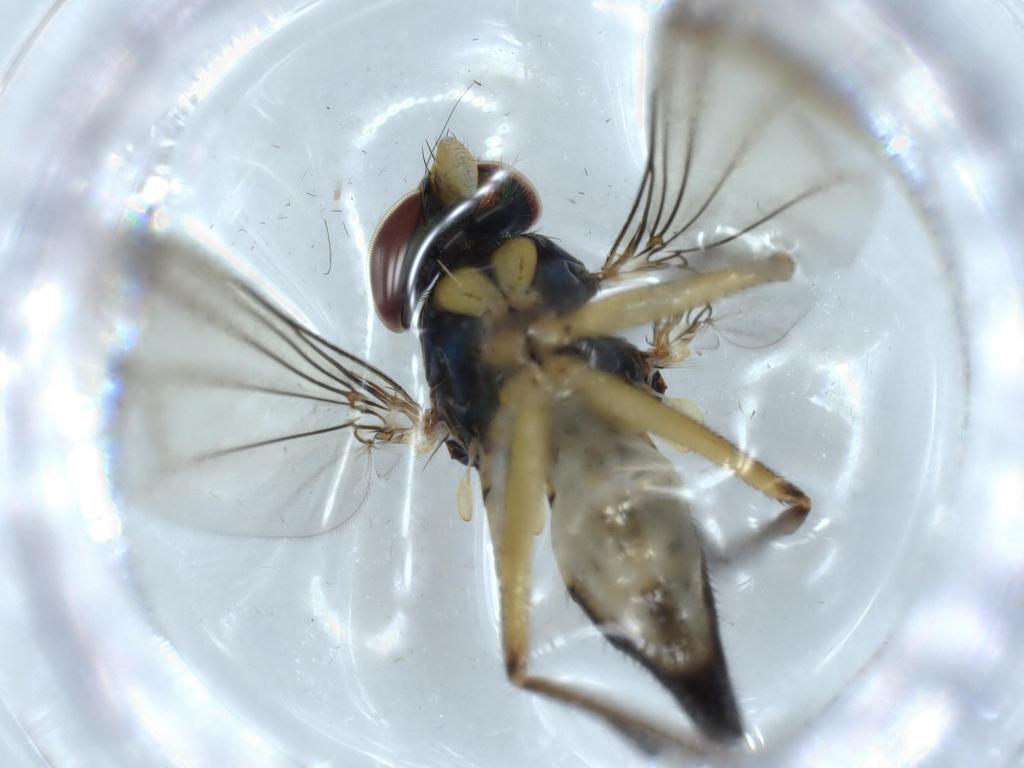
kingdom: Animalia
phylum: Arthropoda
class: Insecta
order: Diptera
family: Dolichopodidae
